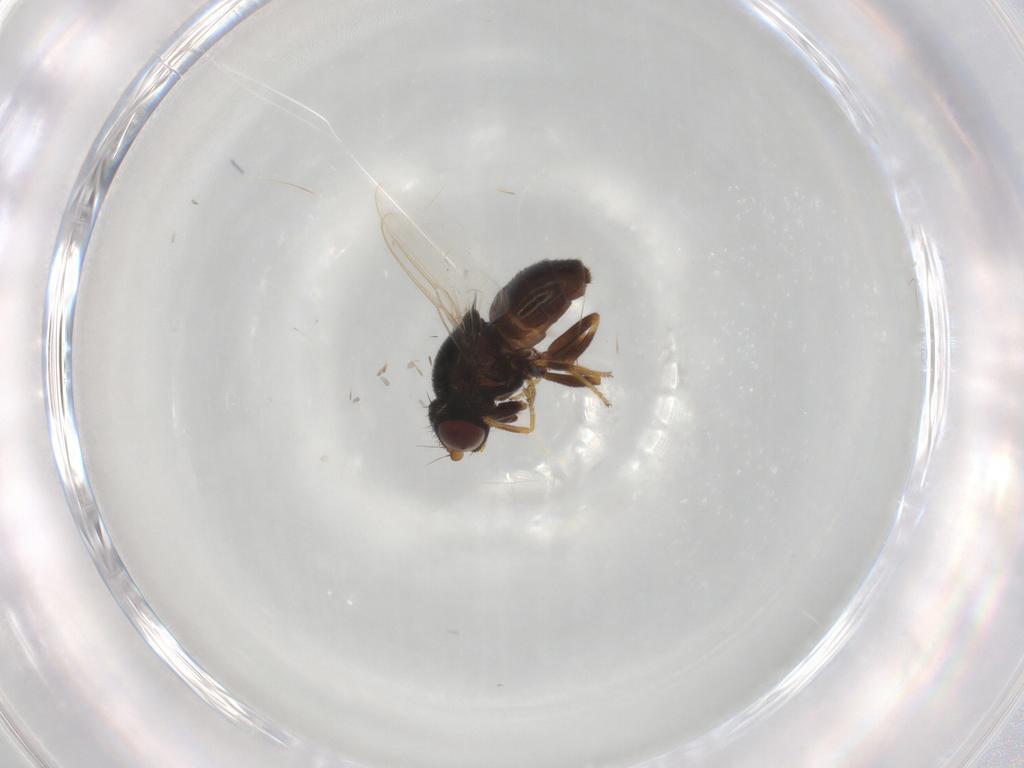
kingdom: Animalia
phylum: Arthropoda
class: Insecta
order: Diptera
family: Chloropidae
